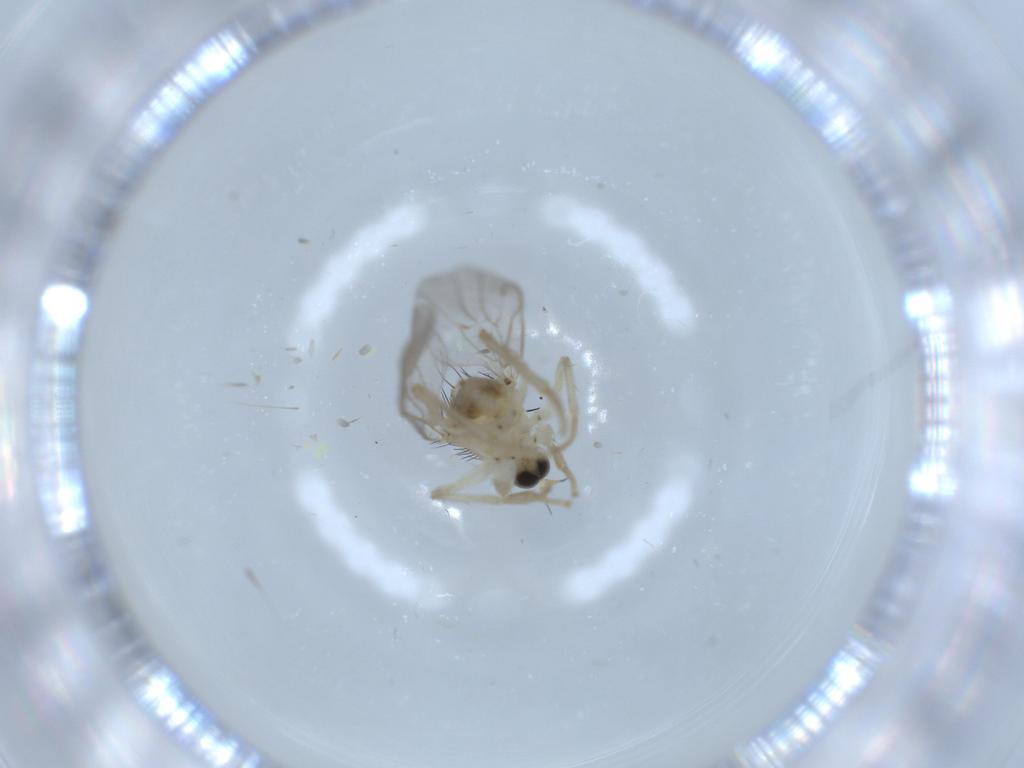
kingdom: Animalia
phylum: Arthropoda
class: Insecta
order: Diptera
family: Hybotidae
